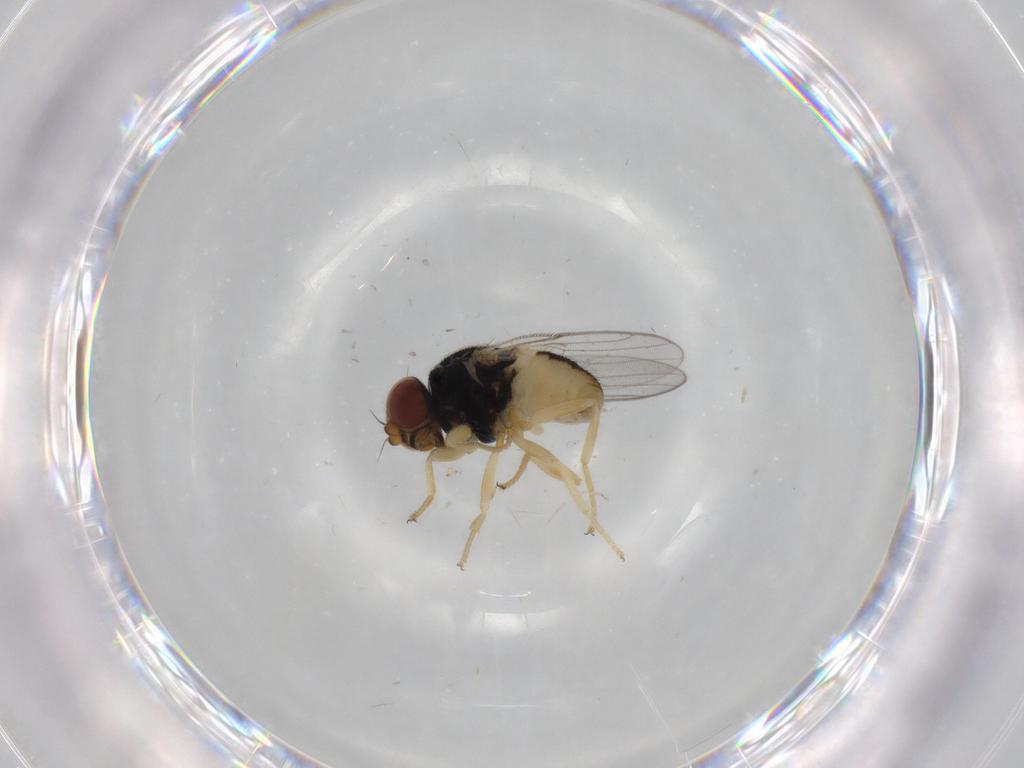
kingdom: Animalia
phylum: Arthropoda
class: Insecta
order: Diptera
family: Chloropidae
